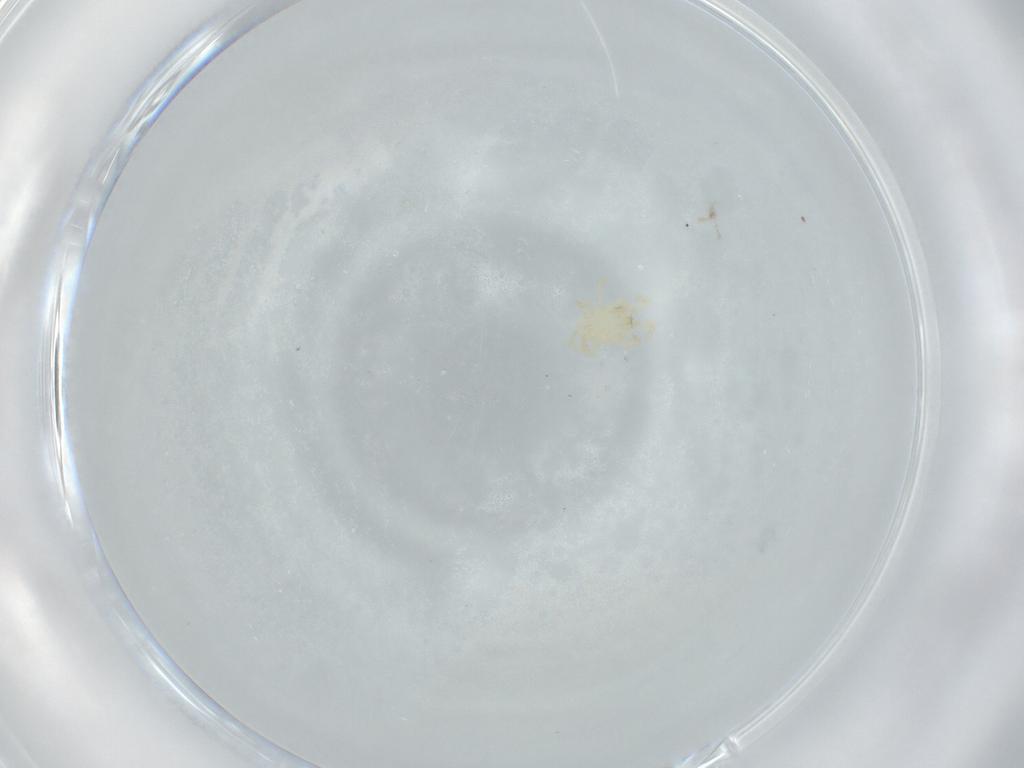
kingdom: Animalia
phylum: Arthropoda
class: Arachnida
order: Mesostigmata
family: Parasitidae
